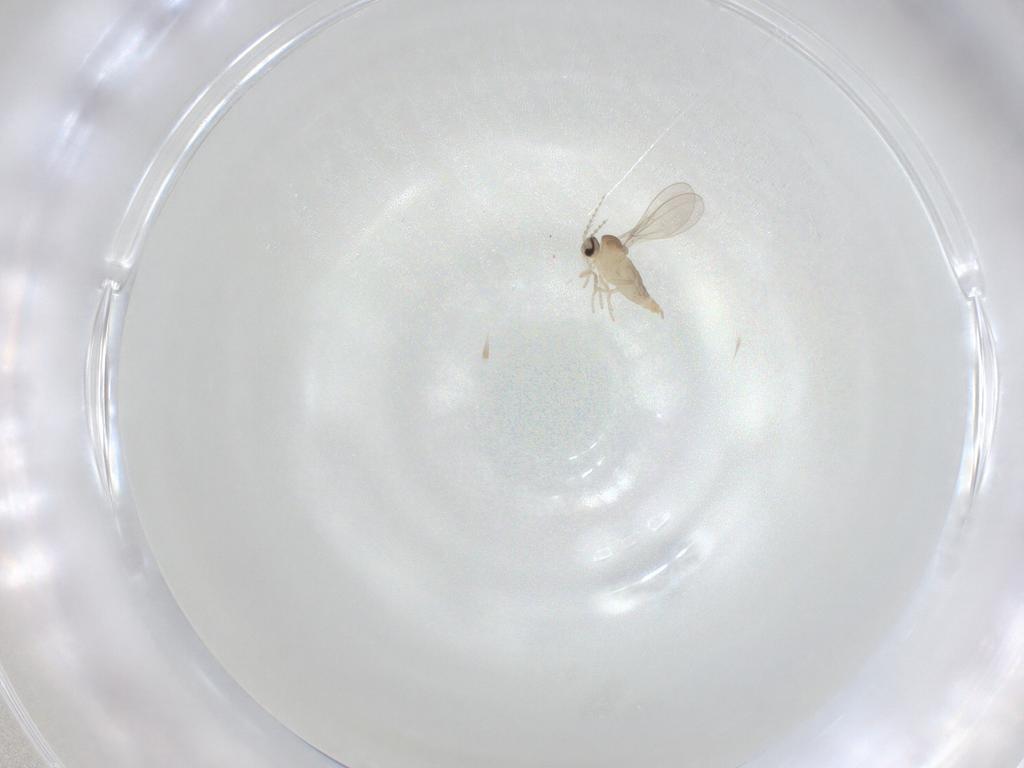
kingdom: Animalia
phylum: Arthropoda
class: Insecta
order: Diptera
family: Cecidomyiidae
